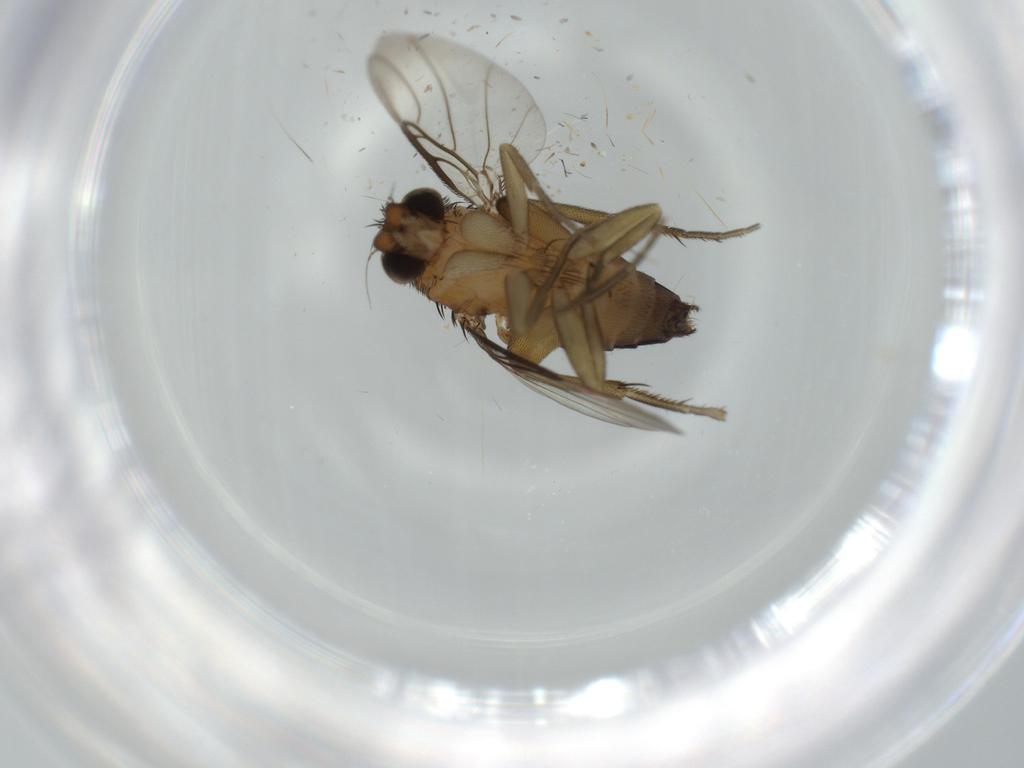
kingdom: Animalia
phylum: Arthropoda
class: Insecta
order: Diptera
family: Phoridae
